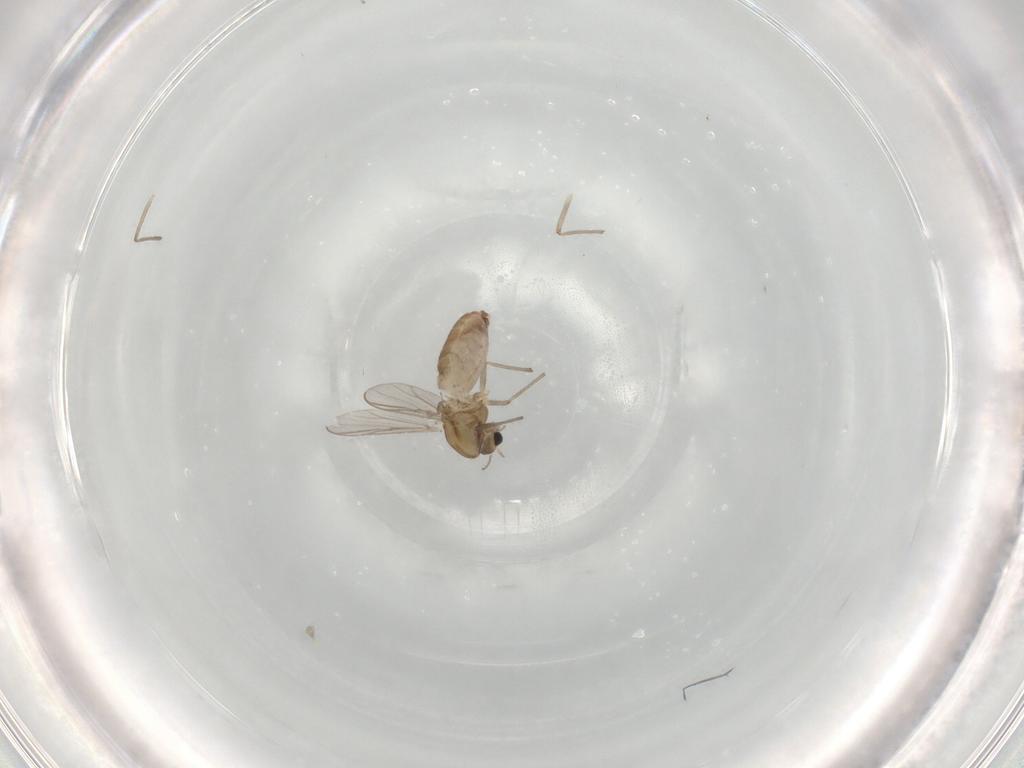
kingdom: Animalia
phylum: Arthropoda
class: Insecta
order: Diptera
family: Chironomidae
